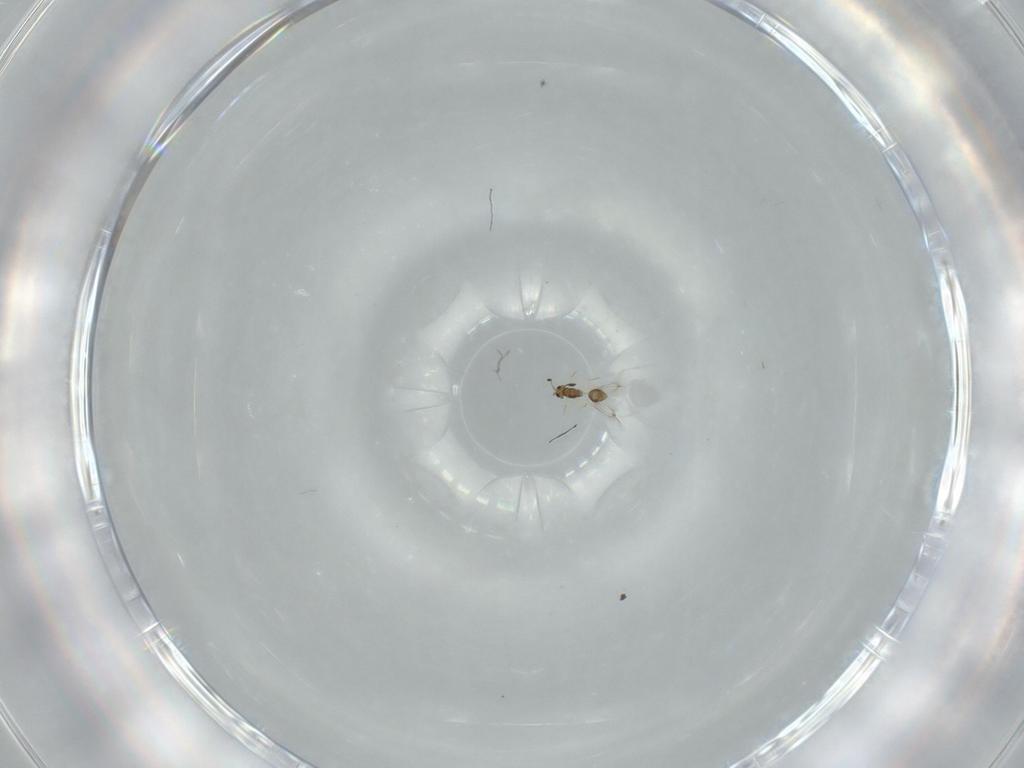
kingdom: Animalia
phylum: Arthropoda
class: Insecta
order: Hymenoptera
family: Mymarommatidae
